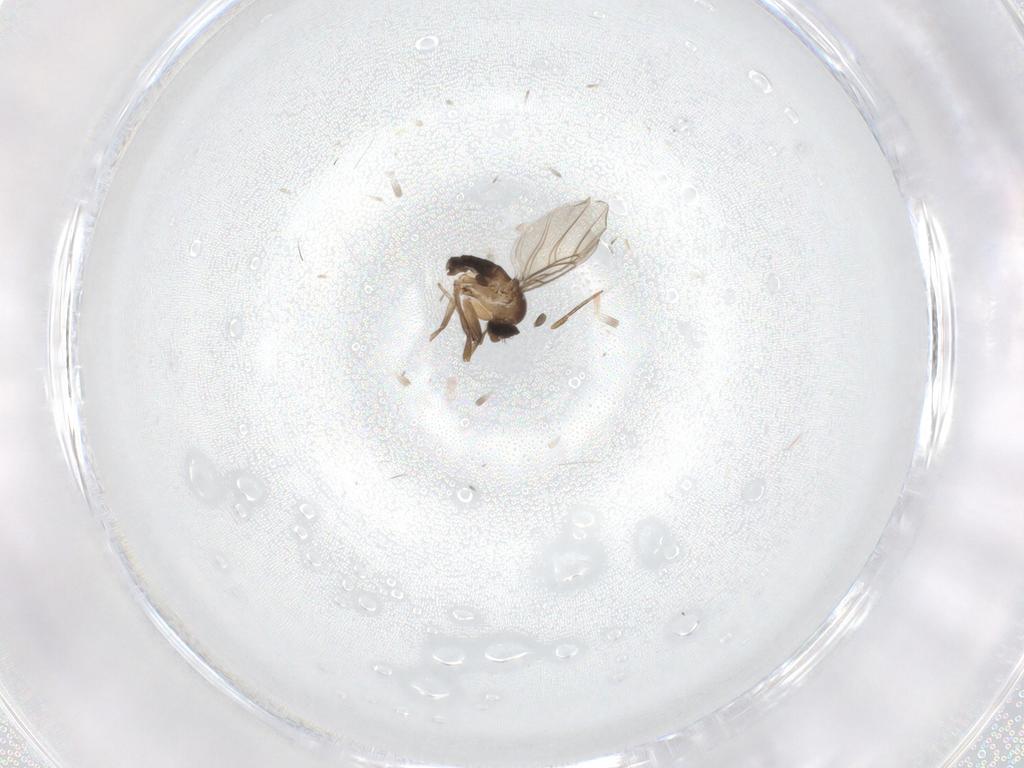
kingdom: Animalia
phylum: Arthropoda
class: Insecta
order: Diptera
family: Phoridae
